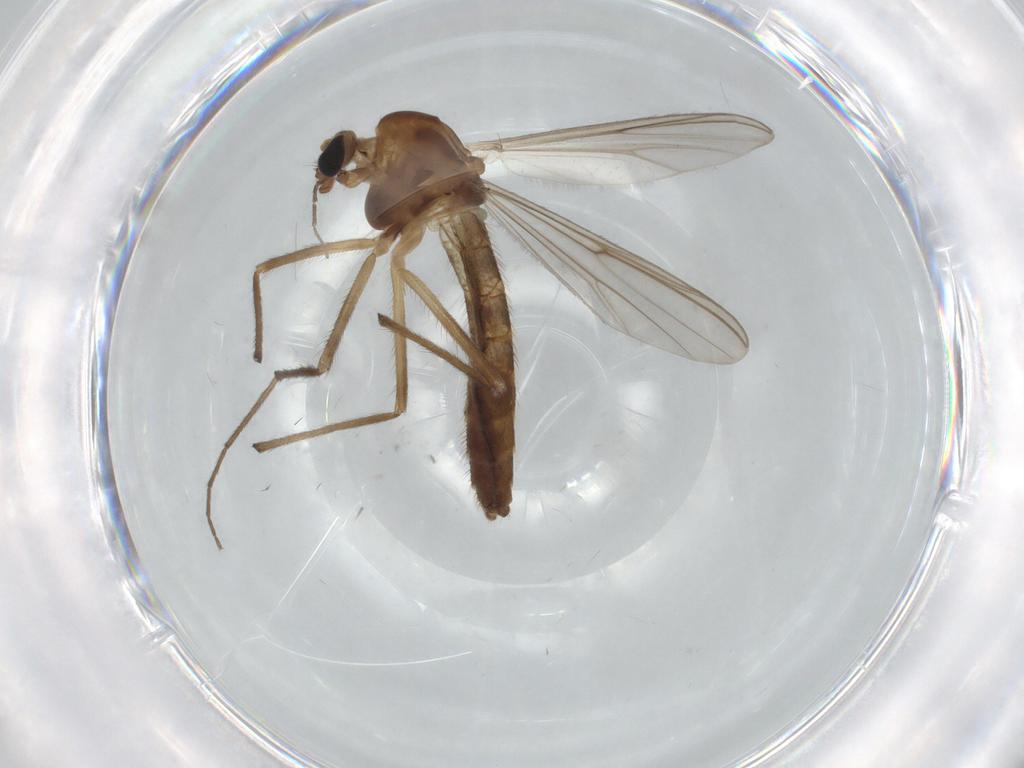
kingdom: Animalia
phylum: Arthropoda
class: Insecta
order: Diptera
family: Chironomidae
